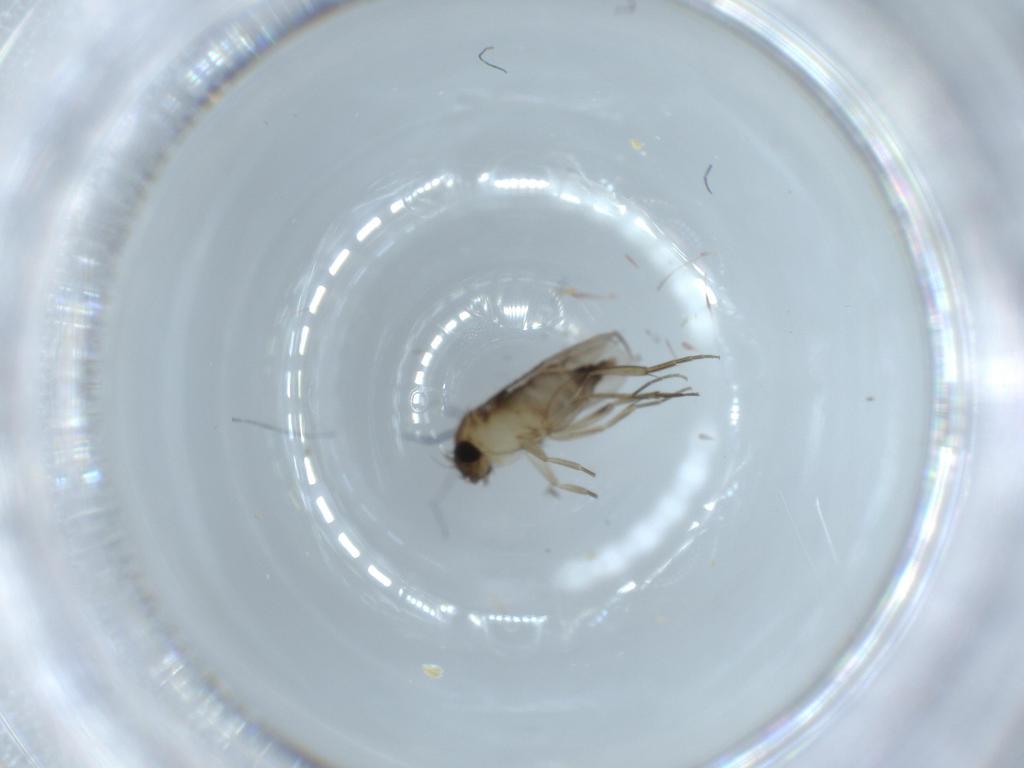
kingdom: Animalia
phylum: Arthropoda
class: Insecta
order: Diptera
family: Phoridae
